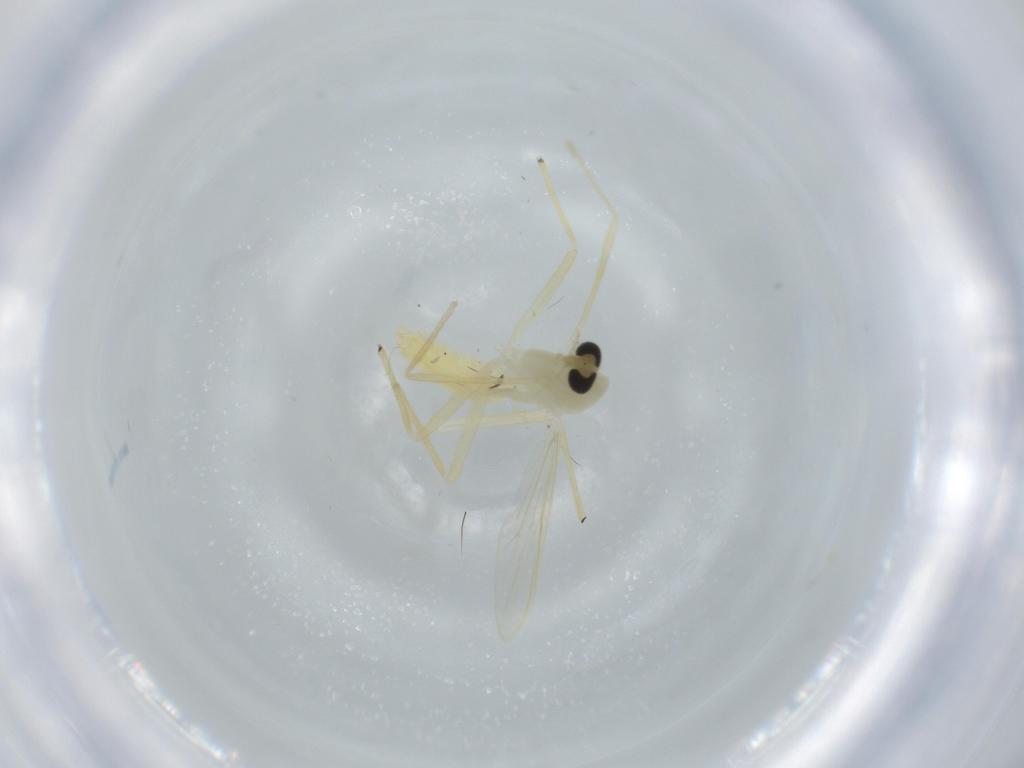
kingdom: Animalia
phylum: Arthropoda
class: Insecta
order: Diptera
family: Chironomidae
